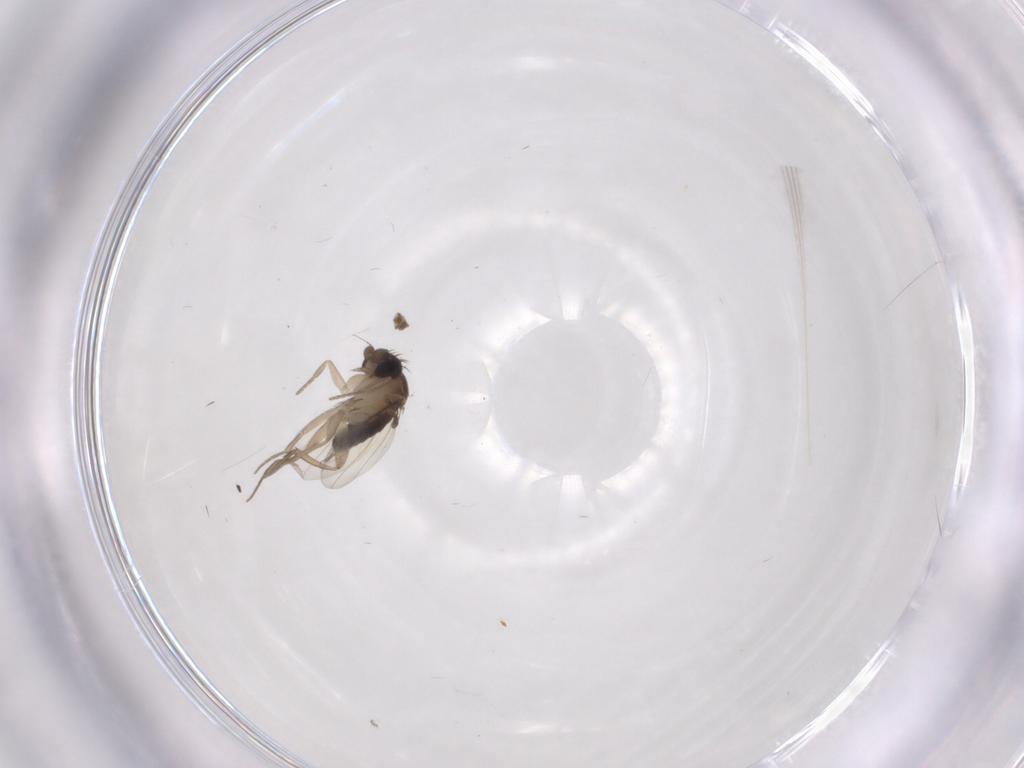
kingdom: Animalia
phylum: Arthropoda
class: Insecta
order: Diptera
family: Phoridae
